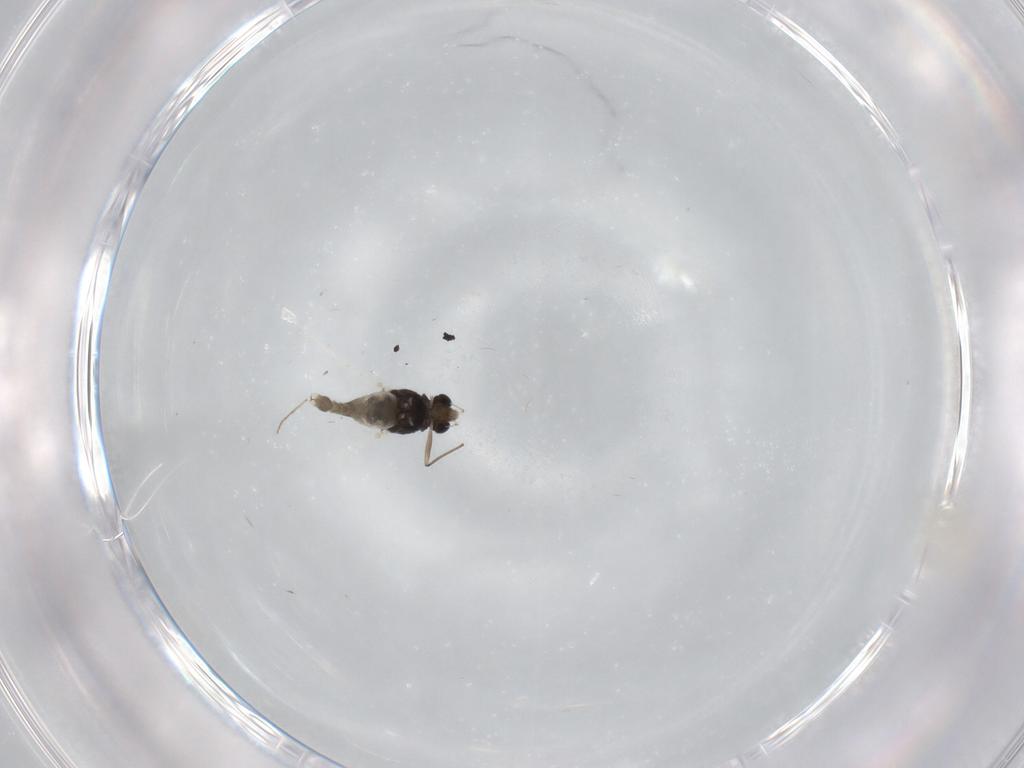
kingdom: Animalia
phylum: Arthropoda
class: Insecta
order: Diptera
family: Chironomidae
